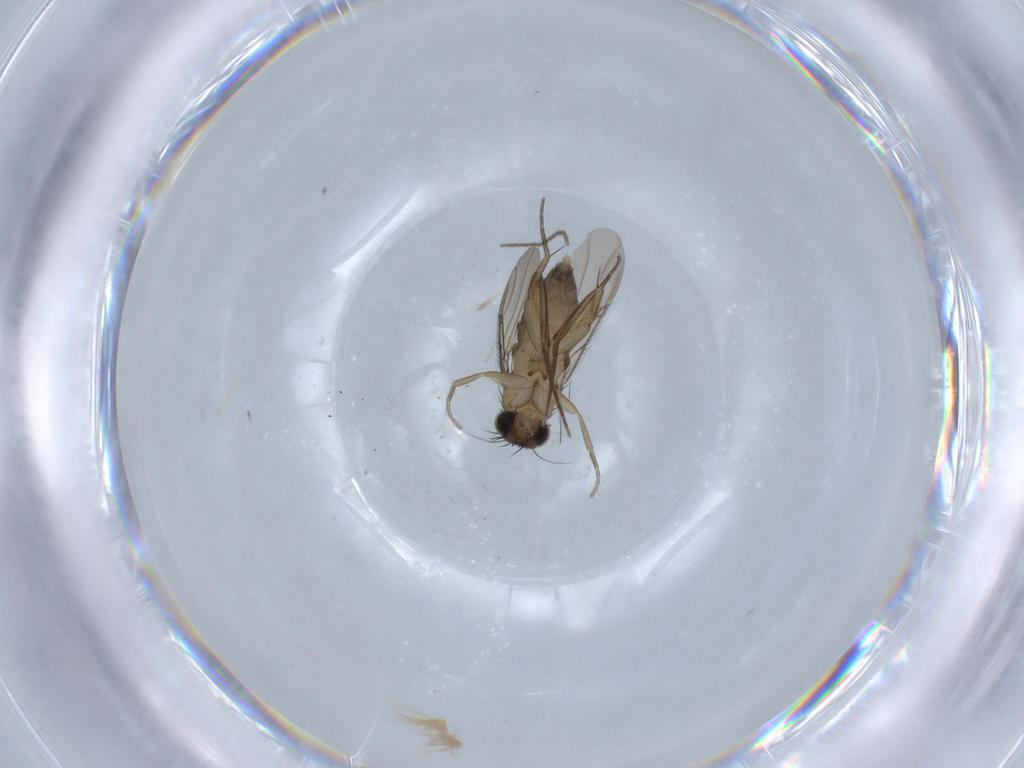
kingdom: Animalia
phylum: Arthropoda
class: Insecta
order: Diptera
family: Phoridae
